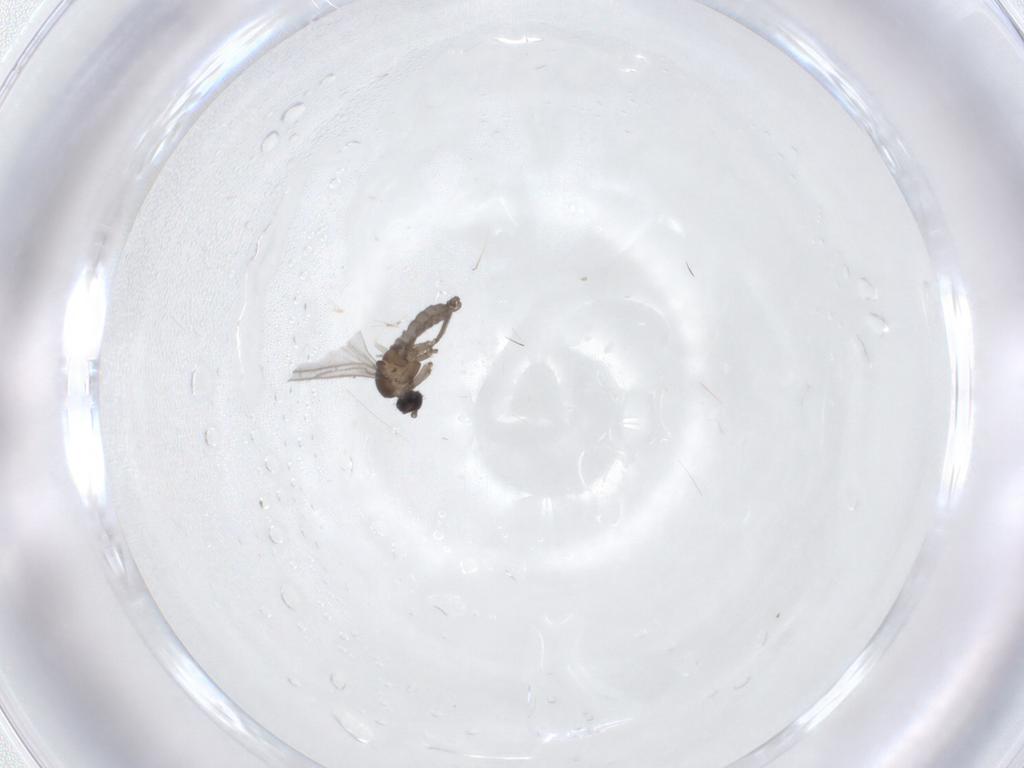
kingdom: Animalia
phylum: Arthropoda
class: Insecta
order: Diptera
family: Sciaridae
